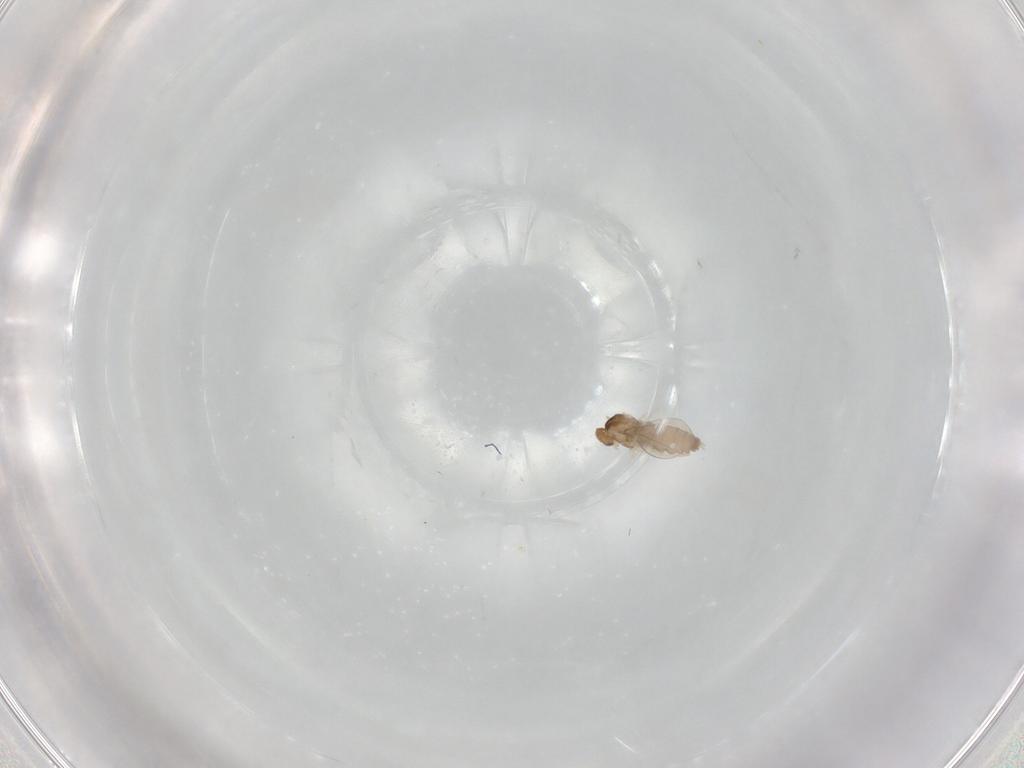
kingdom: Animalia
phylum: Arthropoda
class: Insecta
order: Diptera
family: Cecidomyiidae
